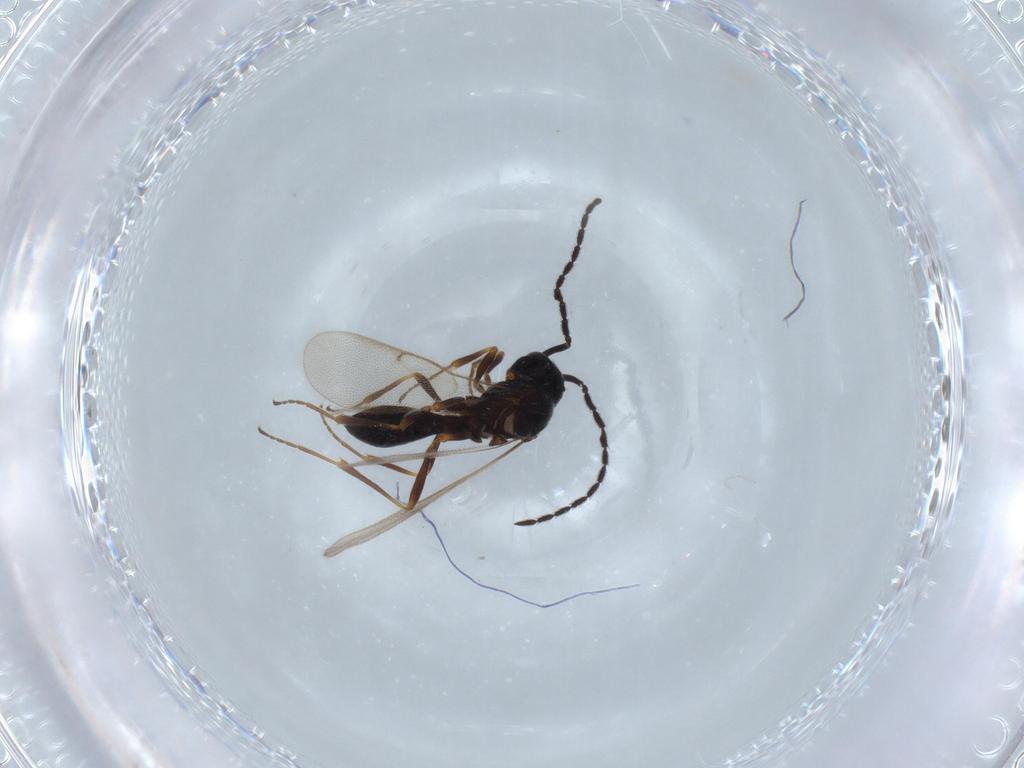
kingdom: Animalia
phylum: Arthropoda
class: Insecta
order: Hymenoptera
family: Scelionidae
